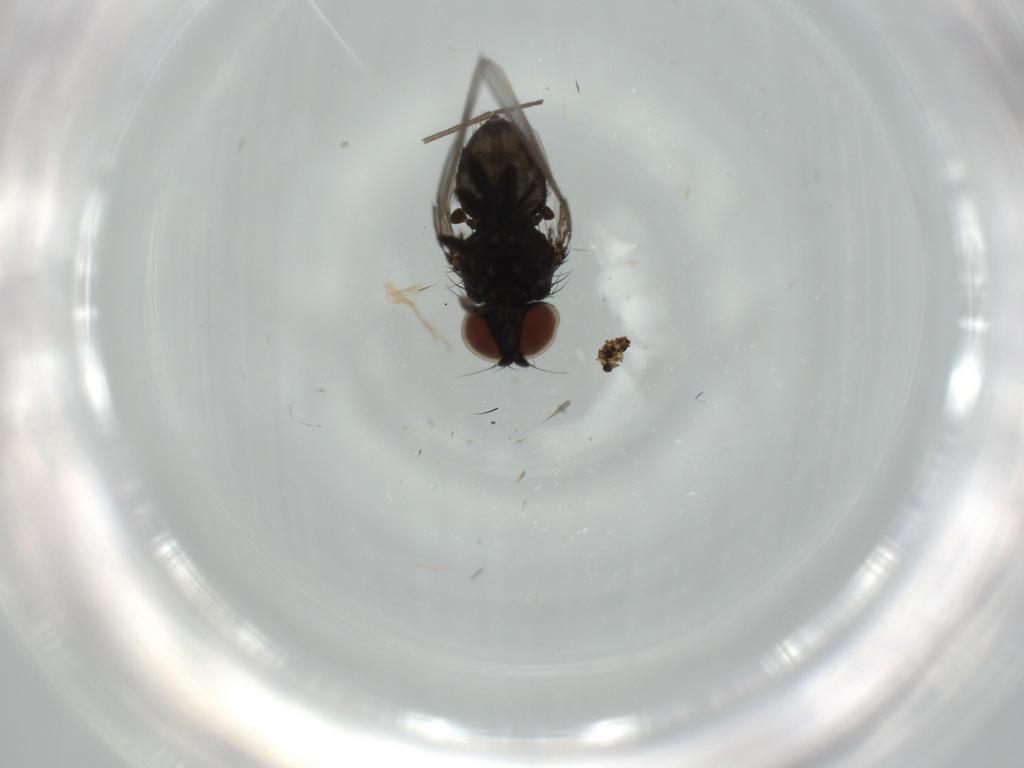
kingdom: Animalia
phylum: Arthropoda
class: Insecta
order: Diptera
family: Milichiidae
